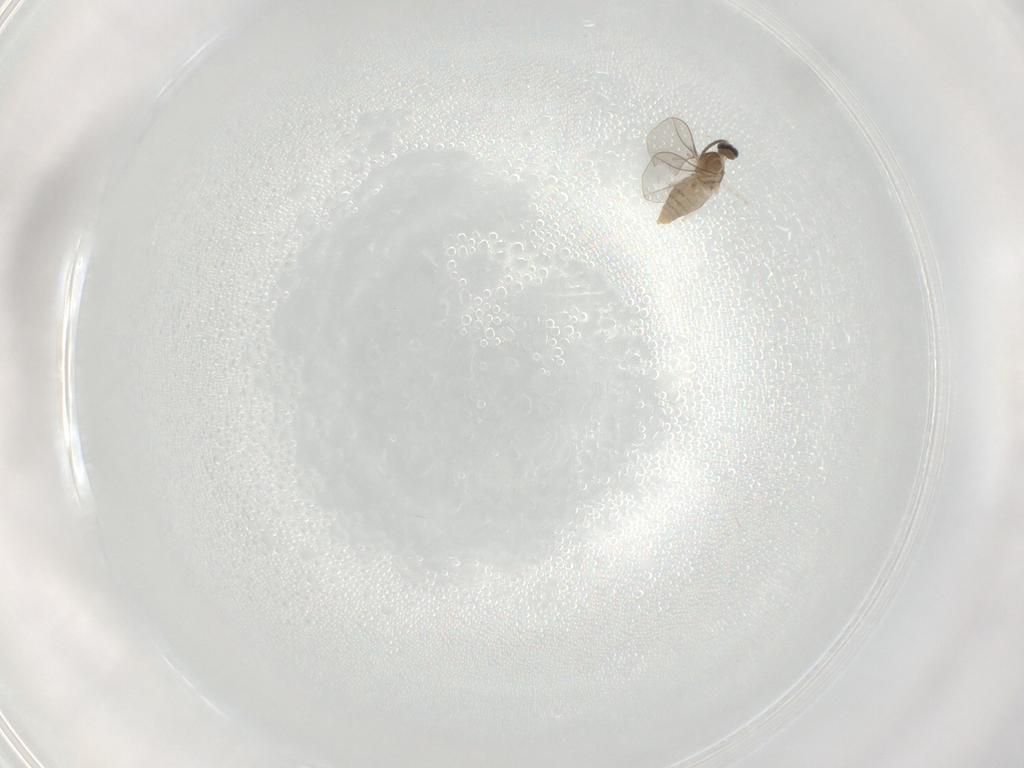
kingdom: Animalia
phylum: Arthropoda
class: Insecta
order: Diptera
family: Cecidomyiidae
